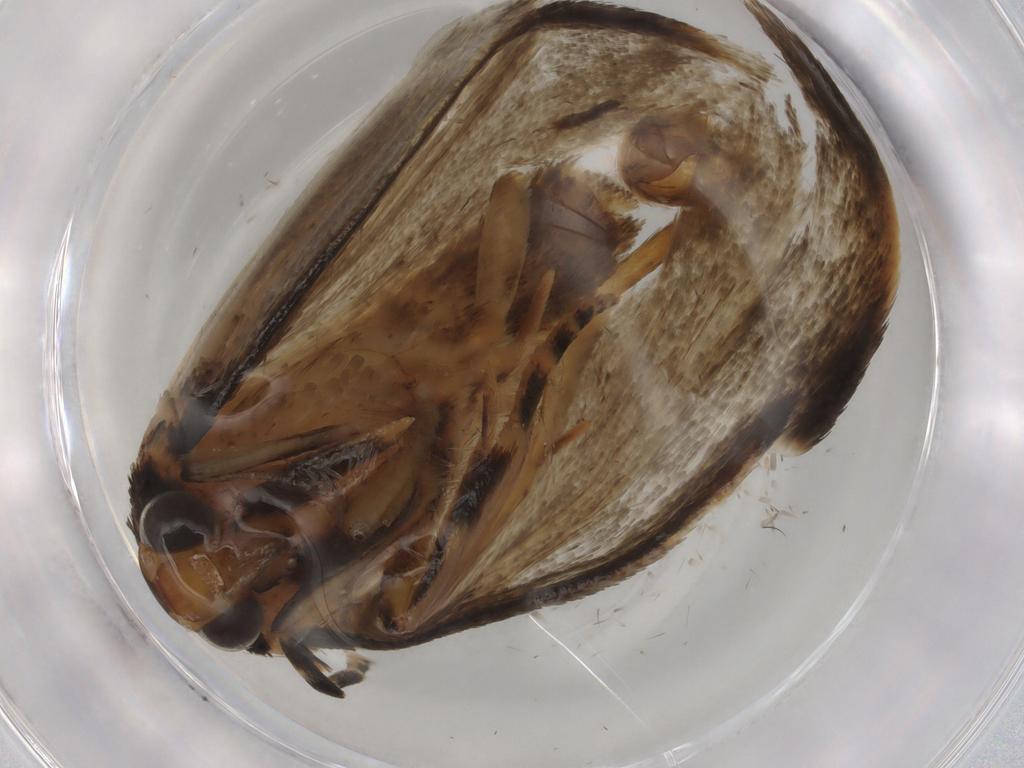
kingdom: Animalia
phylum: Arthropoda
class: Insecta
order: Lepidoptera
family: Oecophoridae
